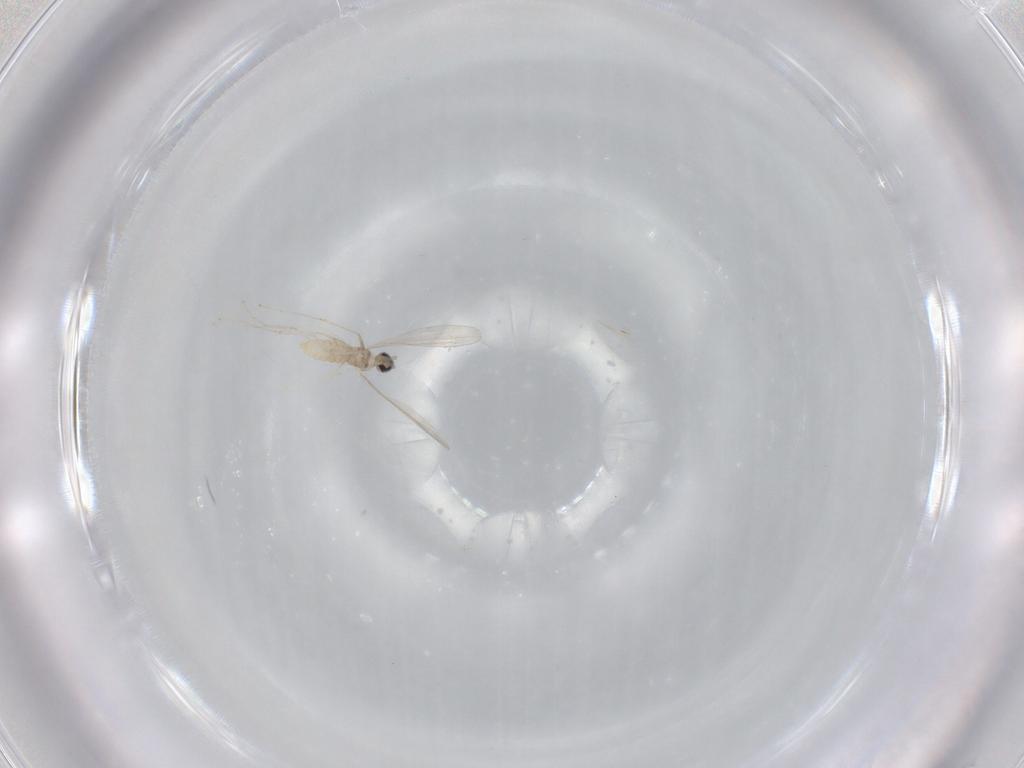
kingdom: Animalia
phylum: Arthropoda
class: Insecta
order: Diptera
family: Cecidomyiidae
